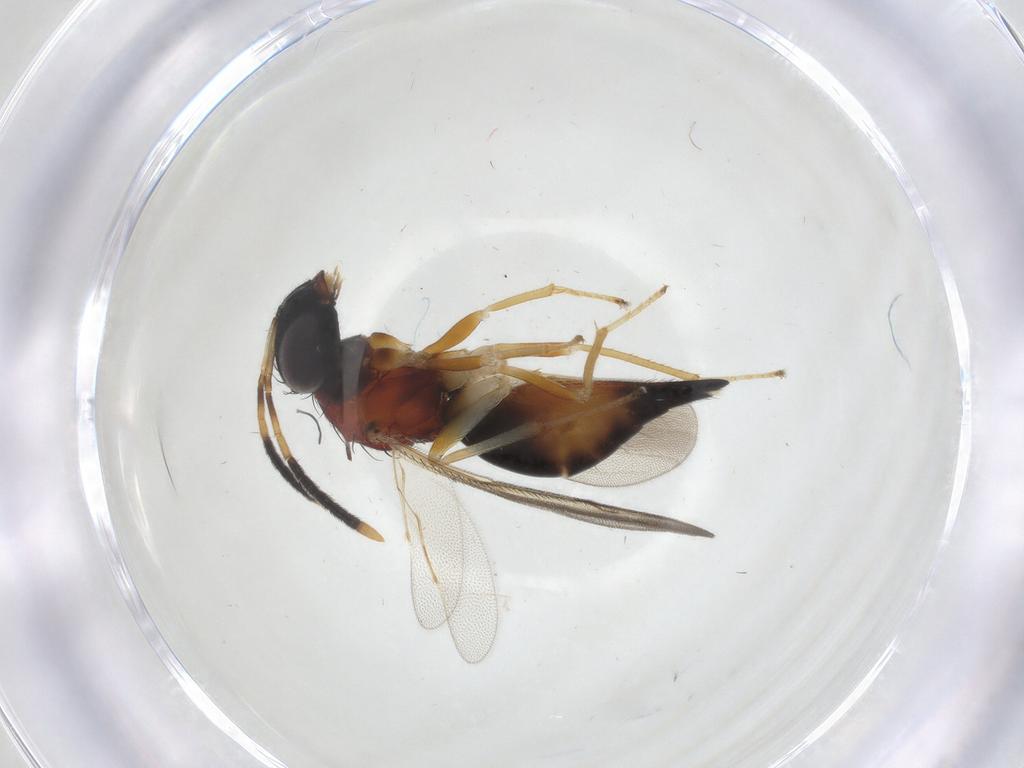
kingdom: Animalia
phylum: Arthropoda
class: Insecta
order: Hymenoptera
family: Diparidae
